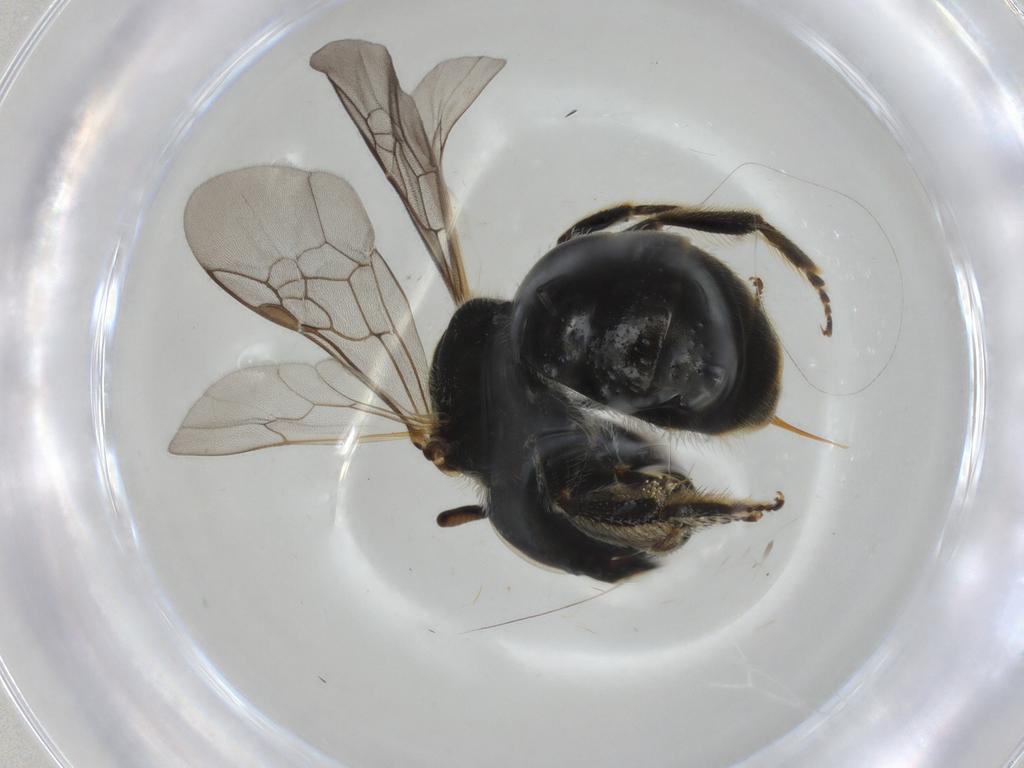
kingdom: Animalia
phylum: Arthropoda
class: Insecta
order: Hymenoptera
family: Halictidae
